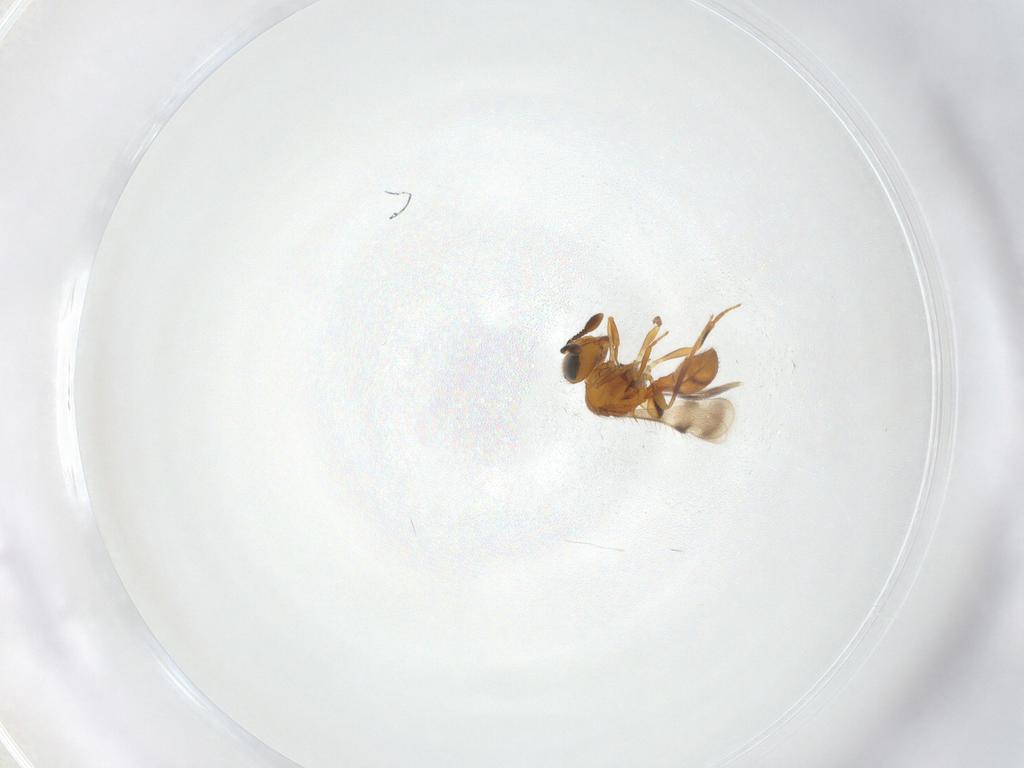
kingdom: Animalia
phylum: Arthropoda
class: Insecta
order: Hymenoptera
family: Scelionidae
